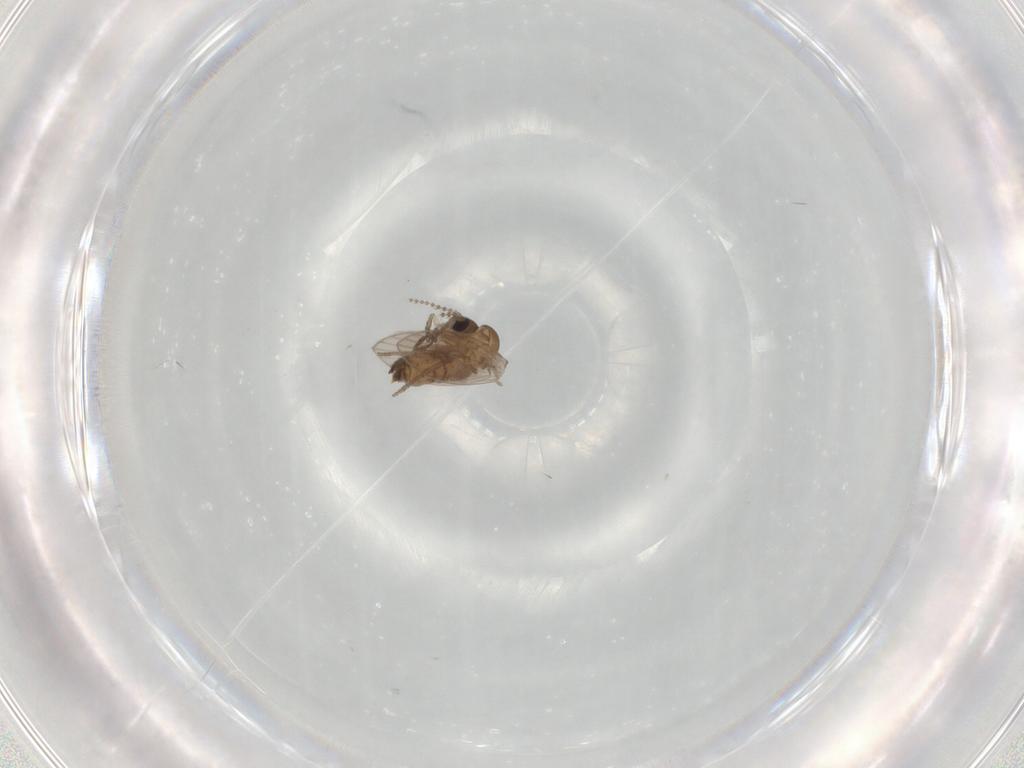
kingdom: Animalia
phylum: Arthropoda
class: Insecta
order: Diptera
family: Psychodidae
